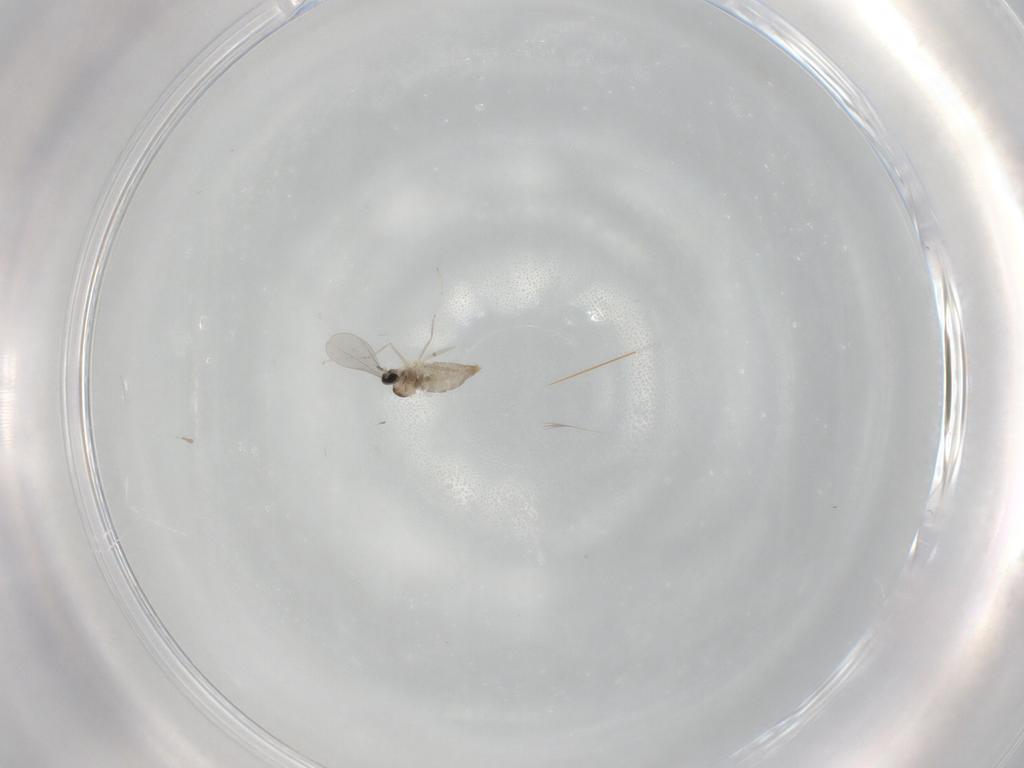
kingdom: Animalia
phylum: Arthropoda
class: Insecta
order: Diptera
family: Cecidomyiidae
